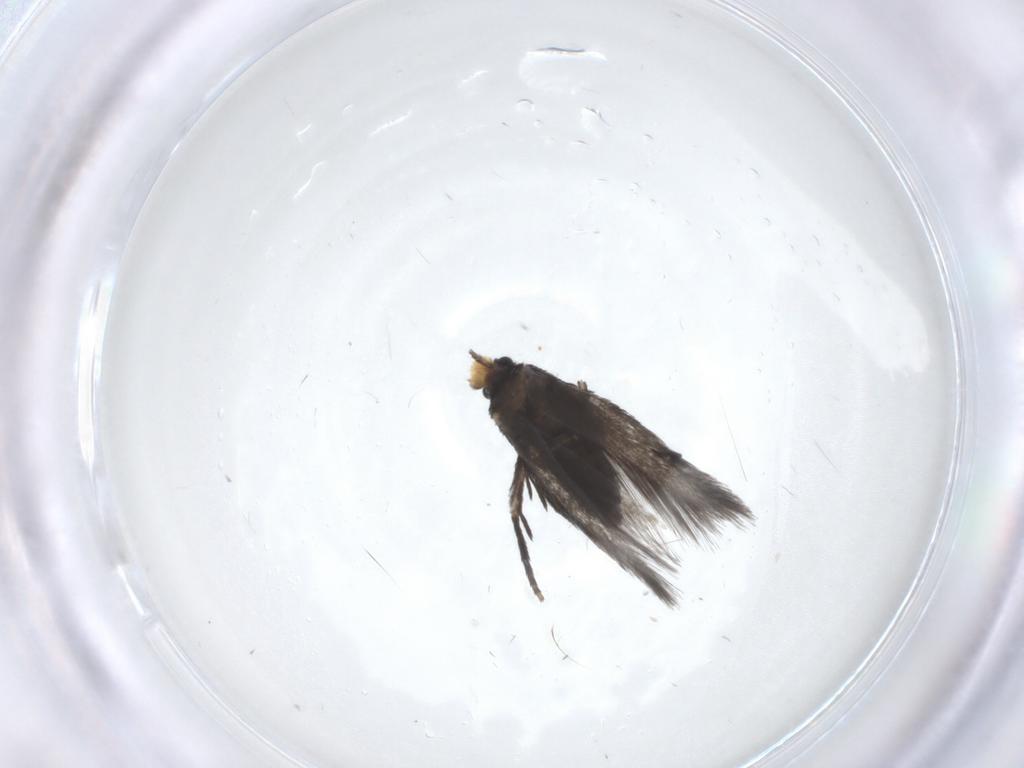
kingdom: Animalia
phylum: Arthropoda
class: Insecta
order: Lepidoptera
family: Nepticulidae
